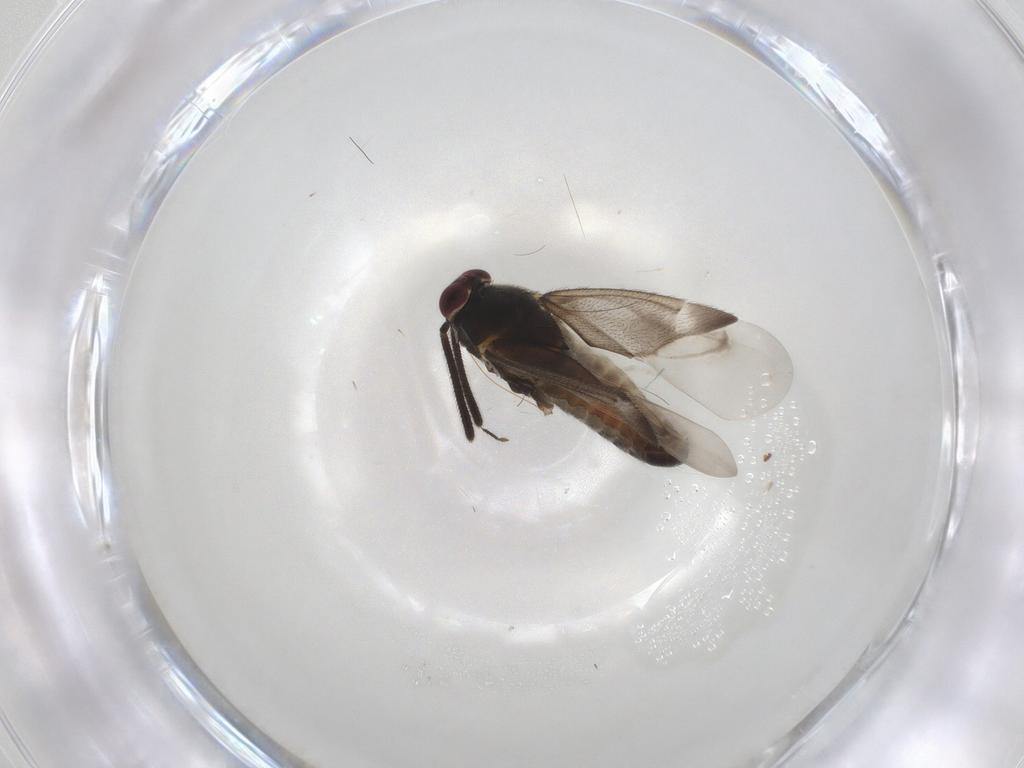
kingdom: Animalia
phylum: Arthropoda
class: Insecta
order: Hemiptera
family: Miridae
